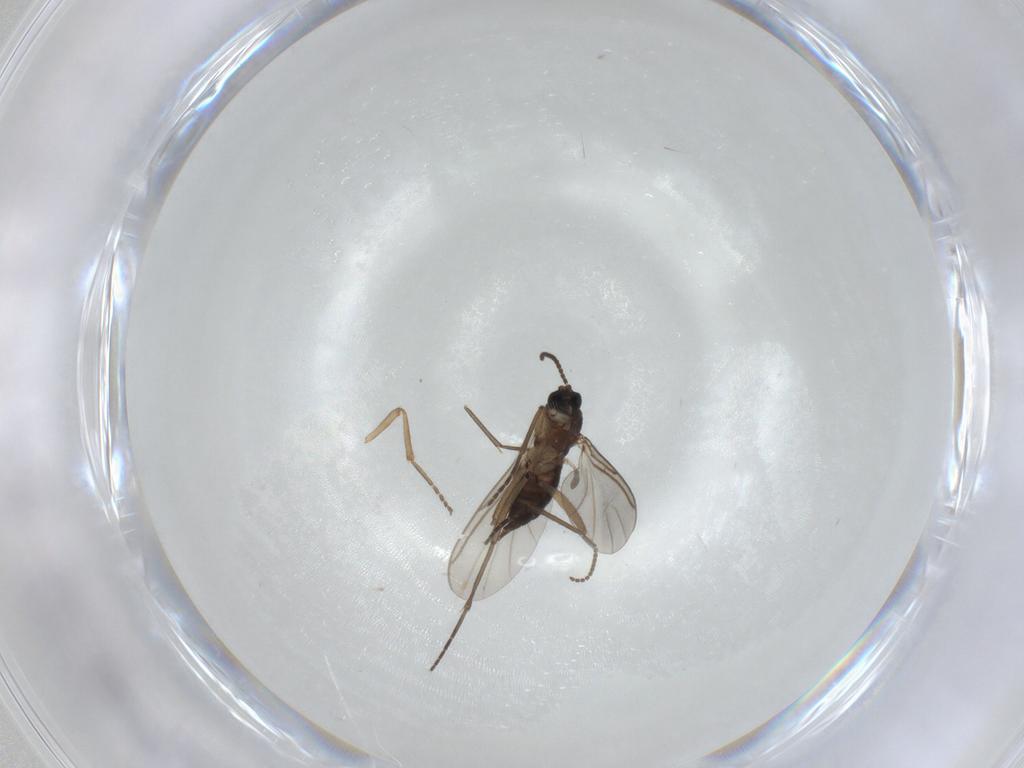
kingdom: Animalia
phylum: Arthropoda
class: Insecta
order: Diptera
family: Ceratopogonidae
